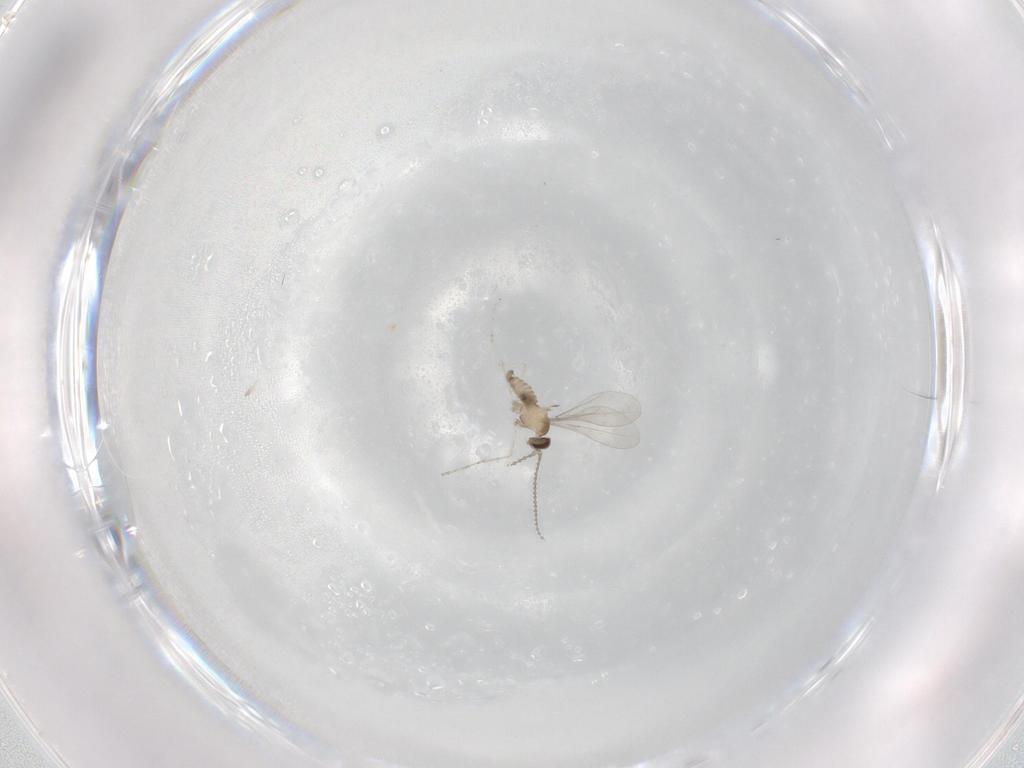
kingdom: Animalia
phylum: Arthropoda
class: Insecta
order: Diptera
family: Cecidomyiidae
